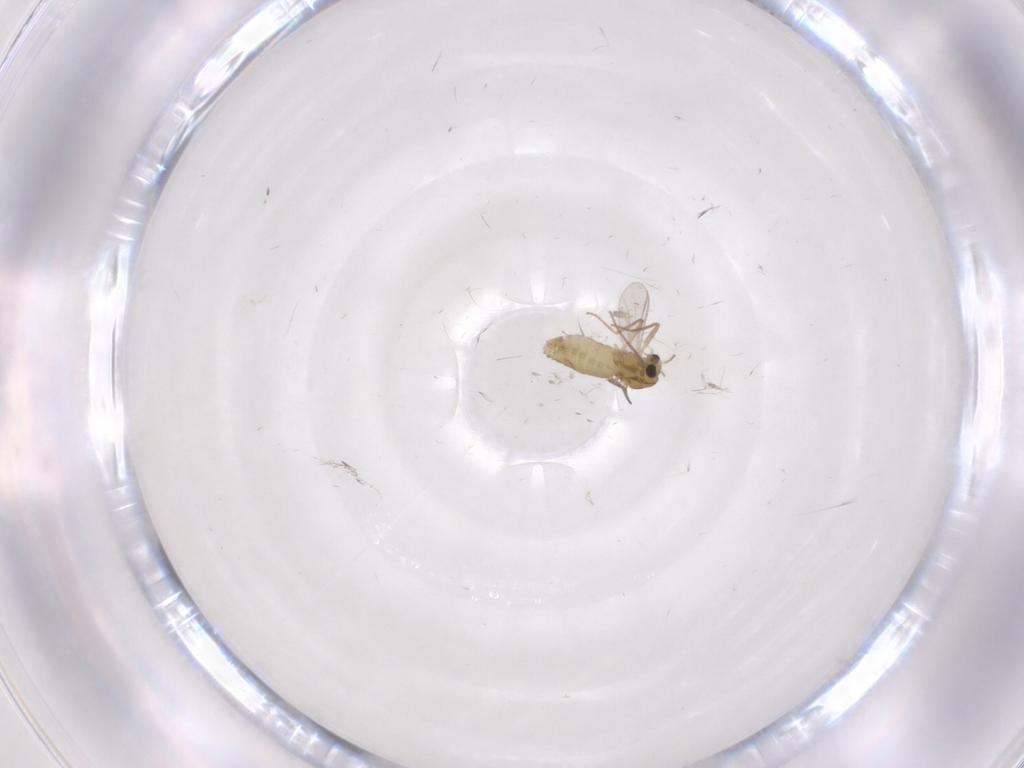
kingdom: Animalia
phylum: Arthropoda
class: Insecta
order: Diptera
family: Chironomidae
